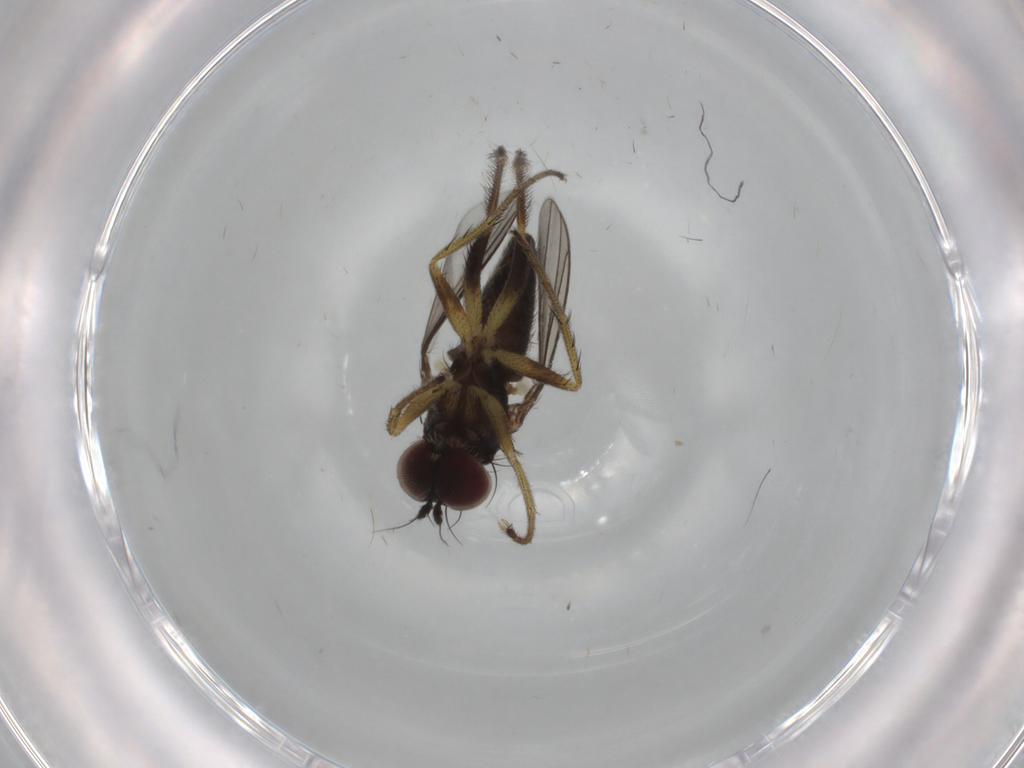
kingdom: Animalia
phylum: Arthropoda
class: Insecta
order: Diptera
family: Dolichopodidae
